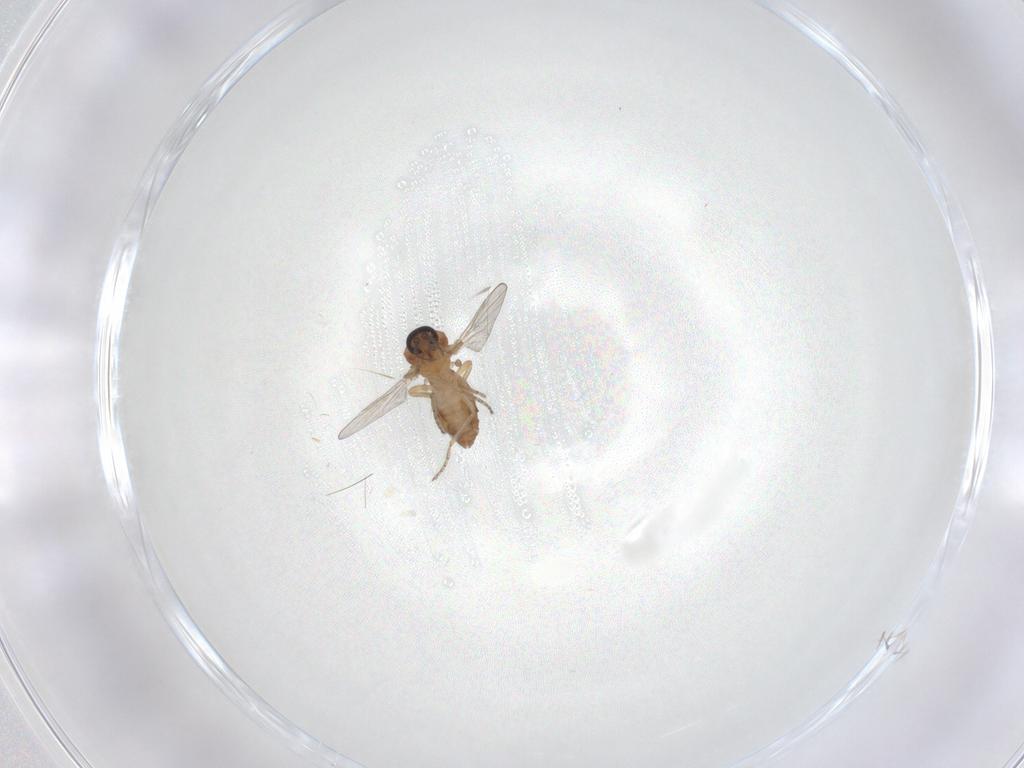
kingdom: Animalia
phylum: Arthropoda
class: Insecta
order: Diptera
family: Ceratopogonidae
